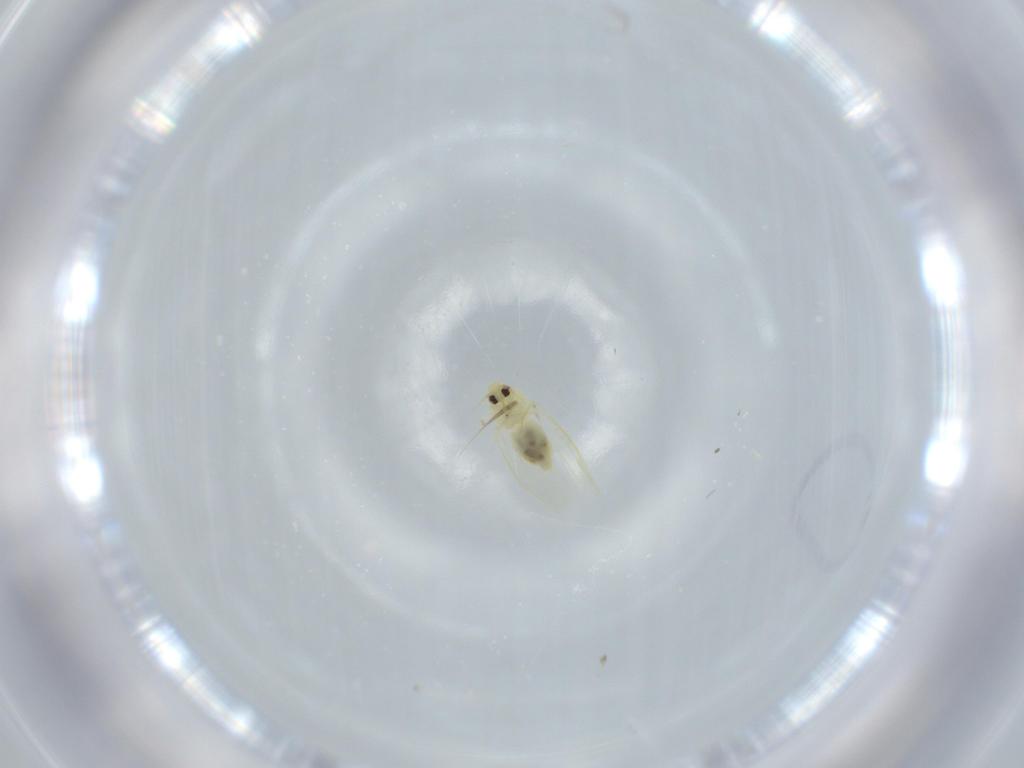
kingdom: Animalia
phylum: Arthropoda
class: Insecta
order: Hemiptera
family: Aleyrodidae
